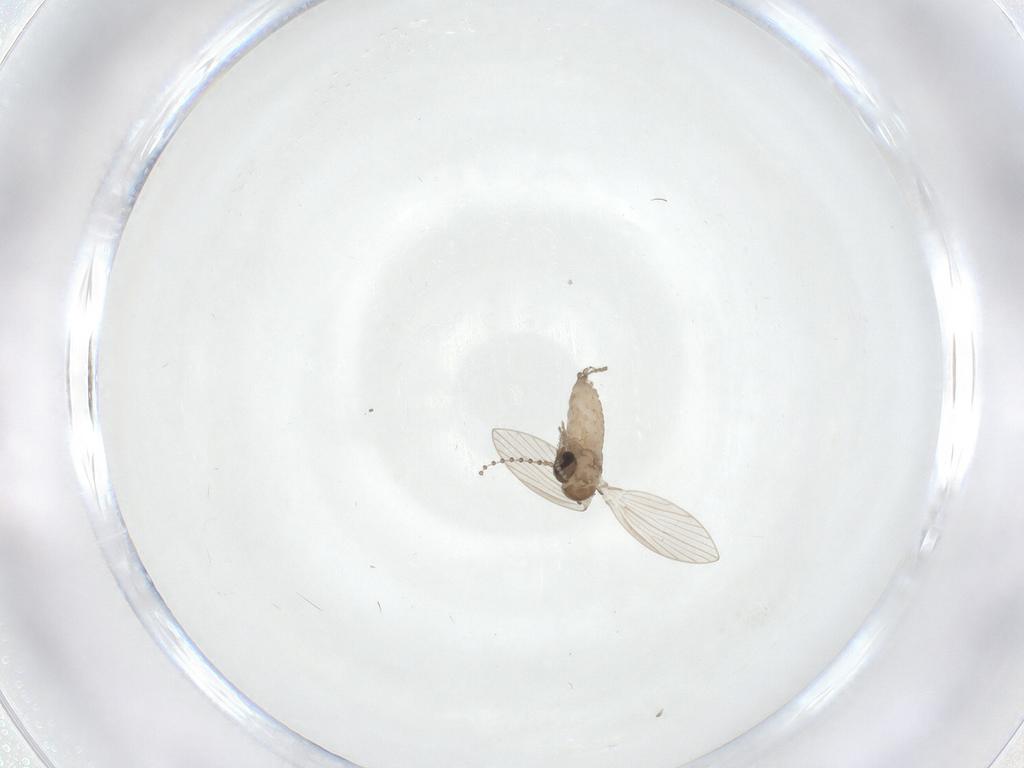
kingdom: Animalia
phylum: Arthropoda
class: Insecta
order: Diptera
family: Psychodidae
